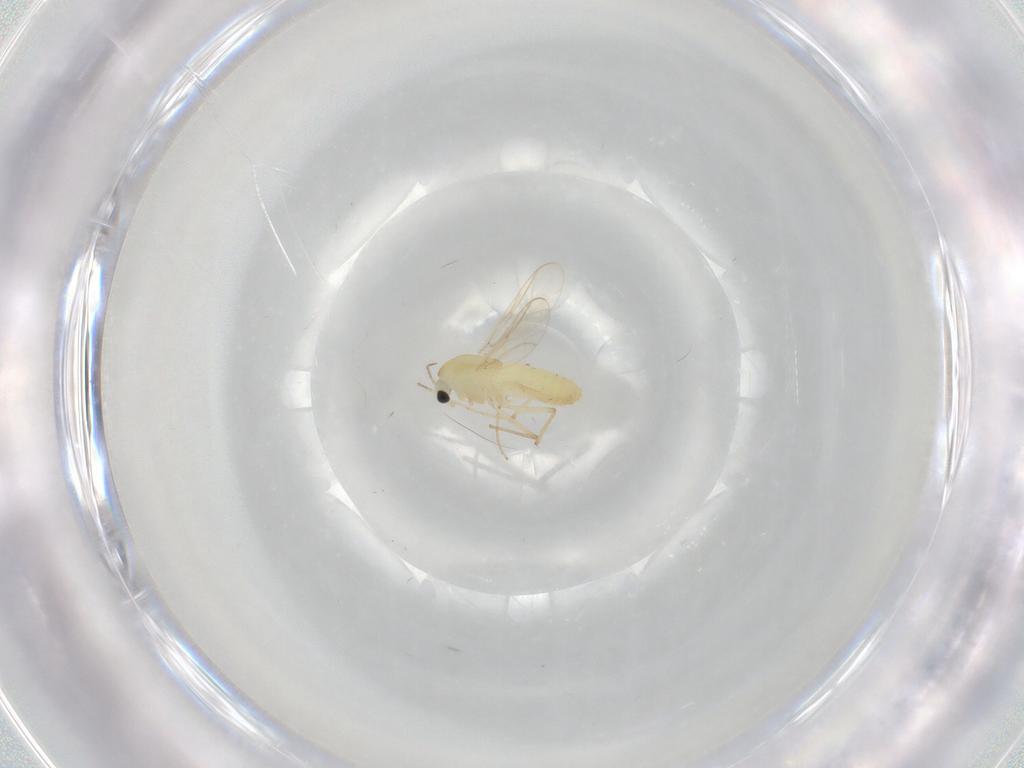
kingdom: Animalia
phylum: Arthropoda
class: Insecta
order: Diptera
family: Chironomidae
